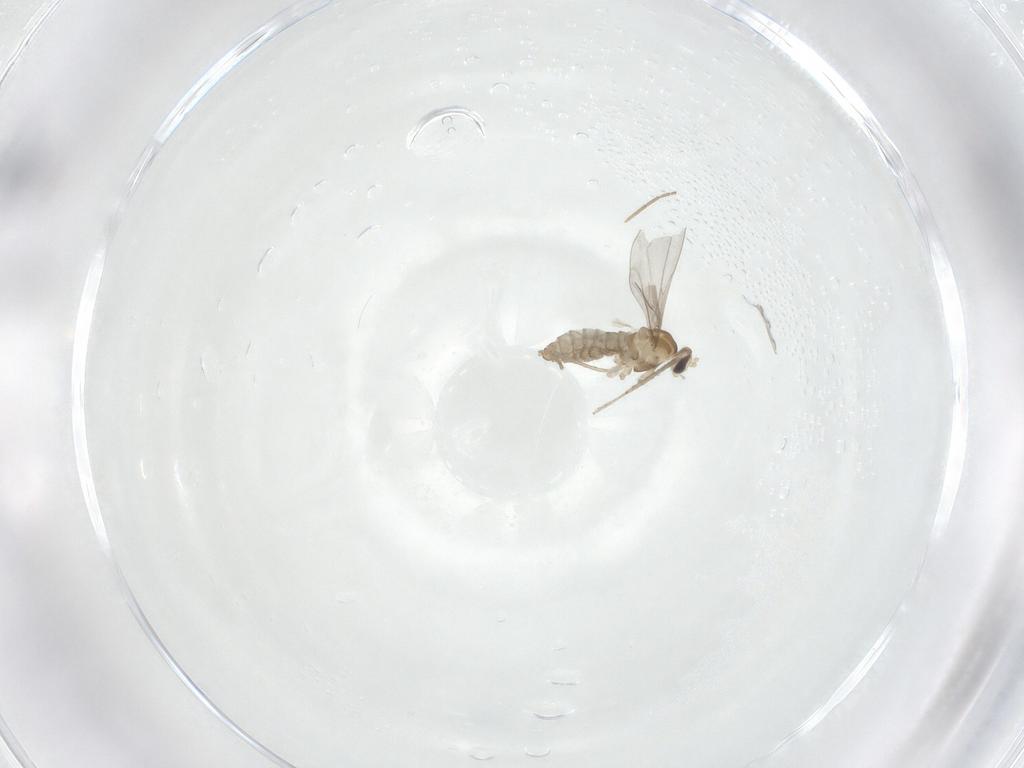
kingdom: Animalia
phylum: Arthropoda
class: Insecta
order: Diptera
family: Cecidomyiidae
